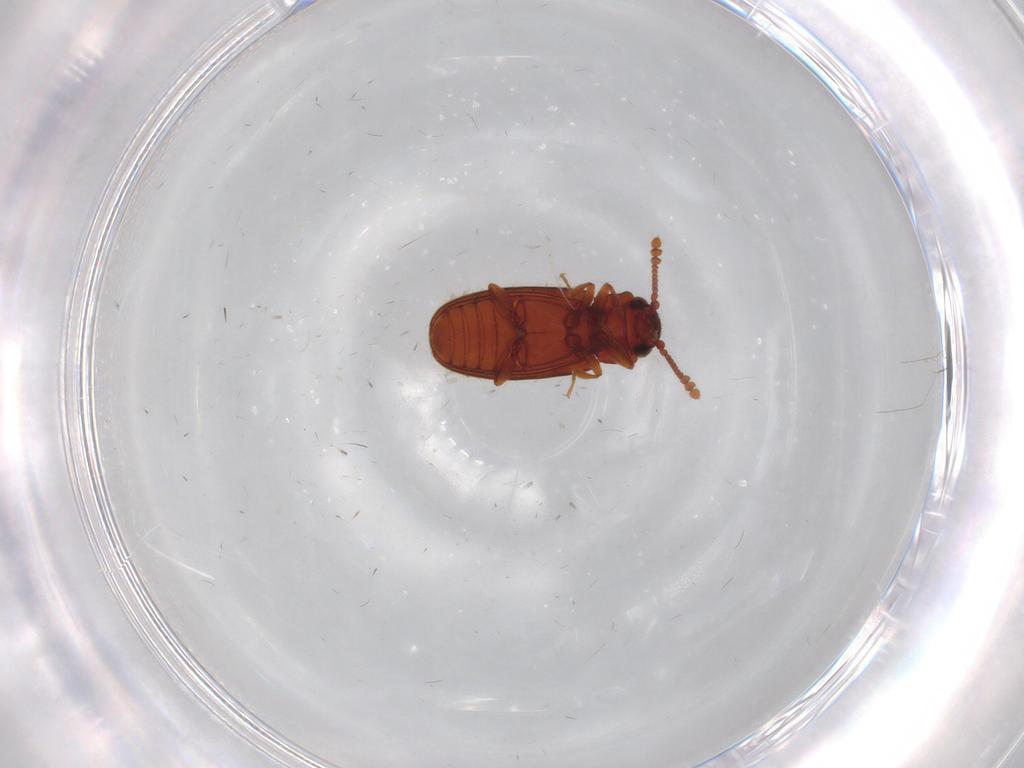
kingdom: Animalia
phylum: Arthropoda
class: Insecta
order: Coleoptera
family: Erotylidae
